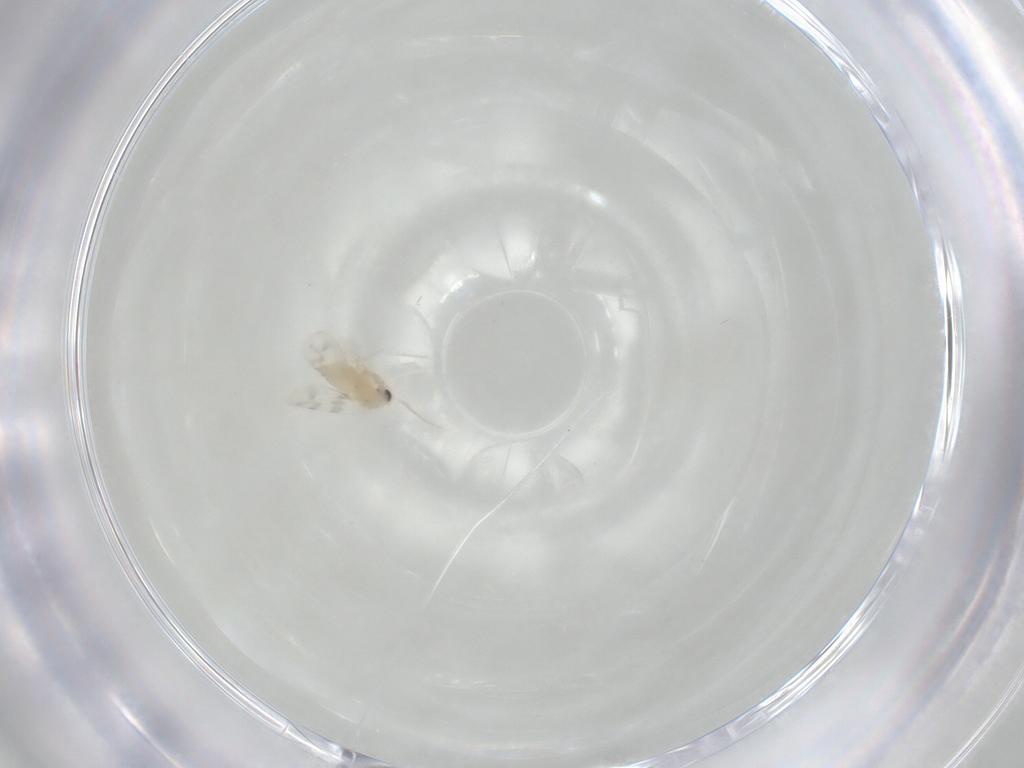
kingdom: Animalia
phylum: Arthropoda
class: Insecta
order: Hemiptera
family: Aleyrodidae
